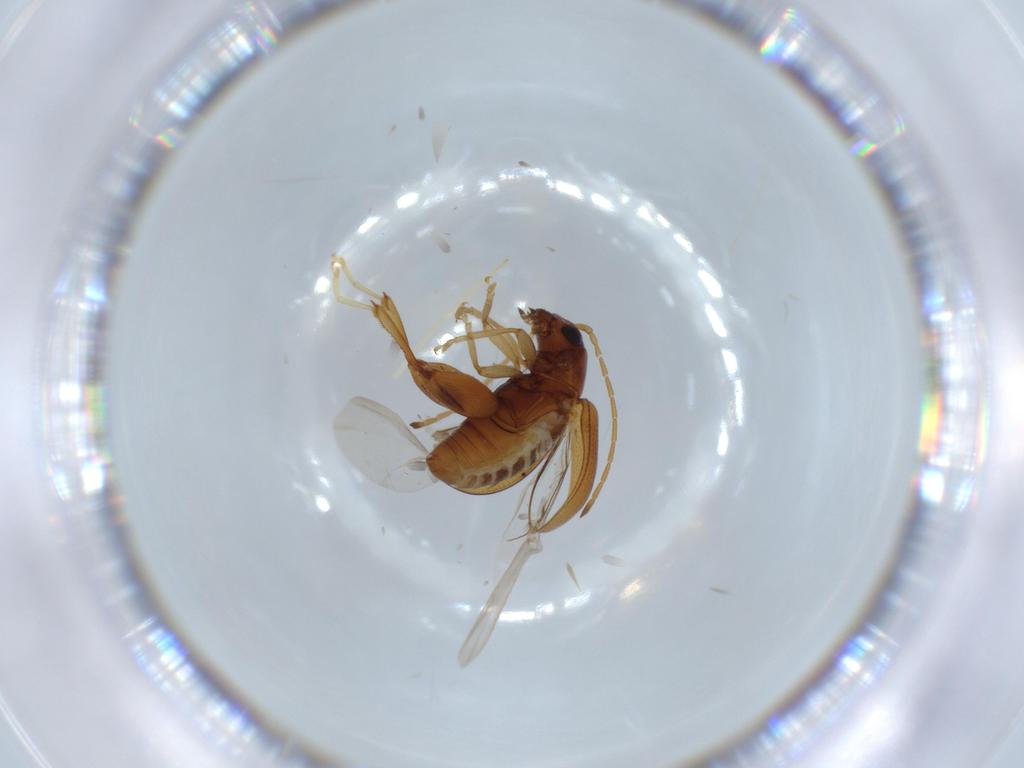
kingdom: Animalia
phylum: Arthropoda
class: Insecta
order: Coleoptera
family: Chrysomelidae
